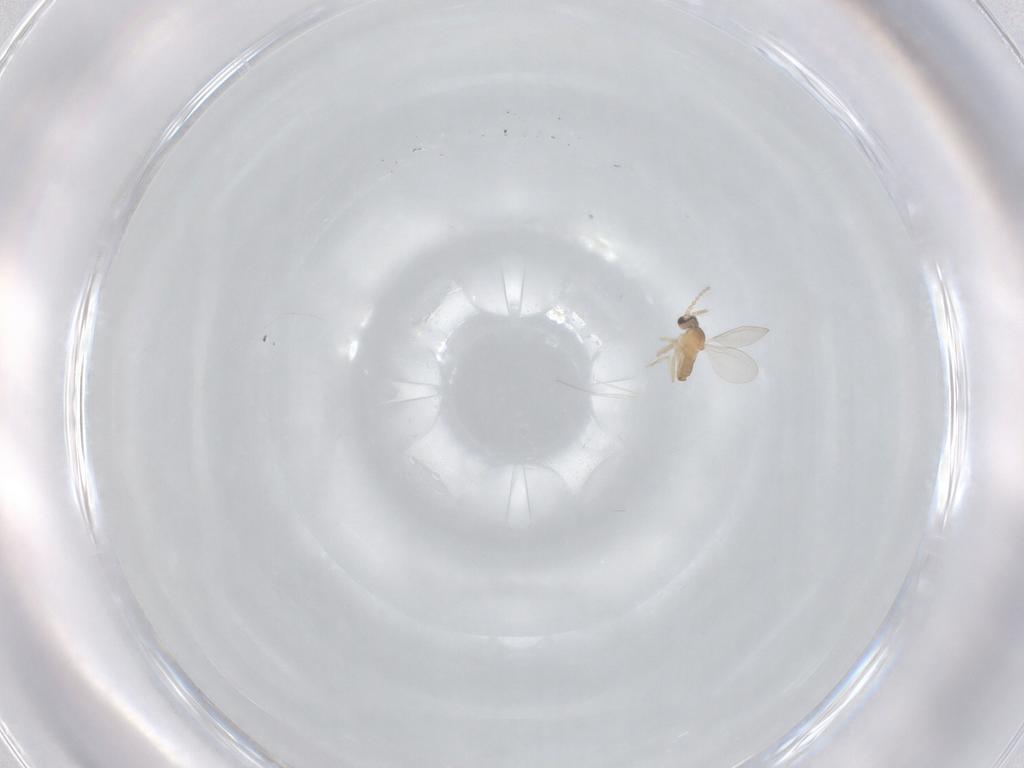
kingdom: Animalia
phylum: Arthropoda
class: Insecta
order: Diptera
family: Cecidomyiidae
